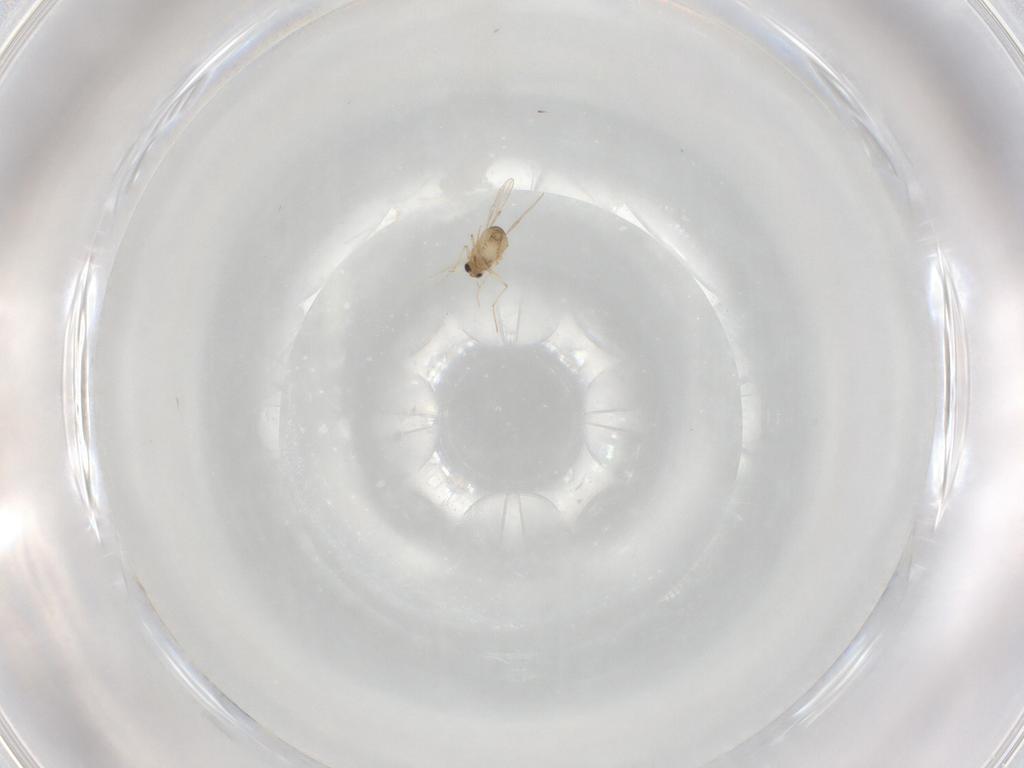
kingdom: Animalia
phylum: Arthropoda
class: Insecta
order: Diptera
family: Chironomidae
